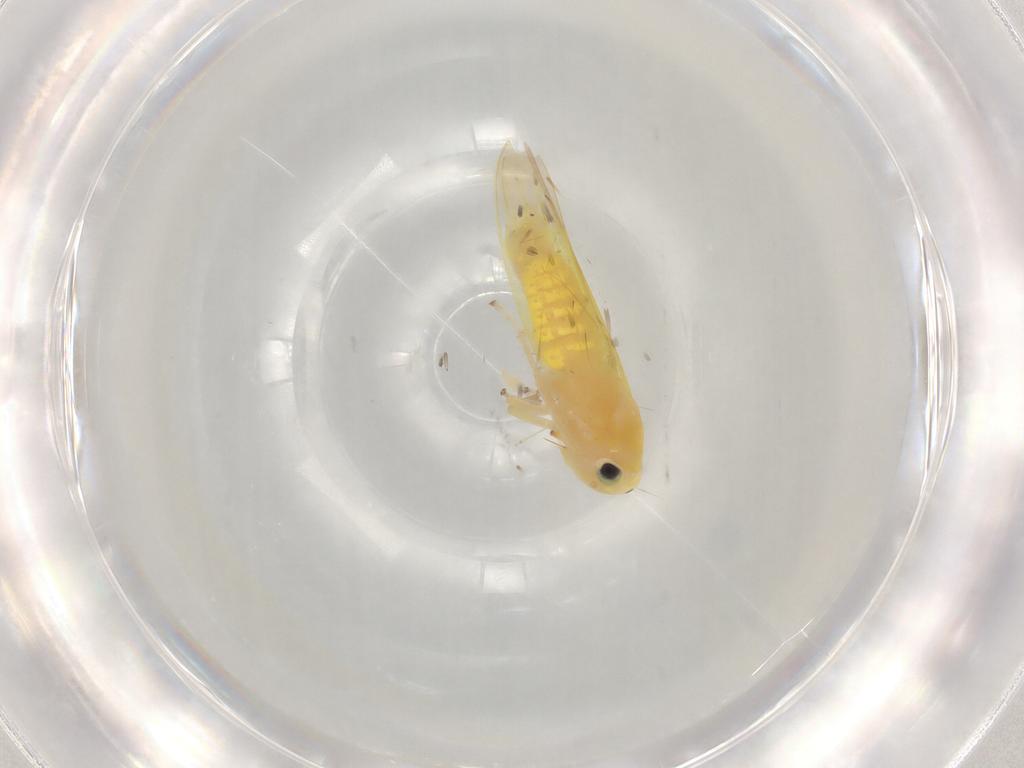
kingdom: Animalia
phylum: Arthropoda
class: Insecta
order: Hemiptera
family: Cicadellidae
